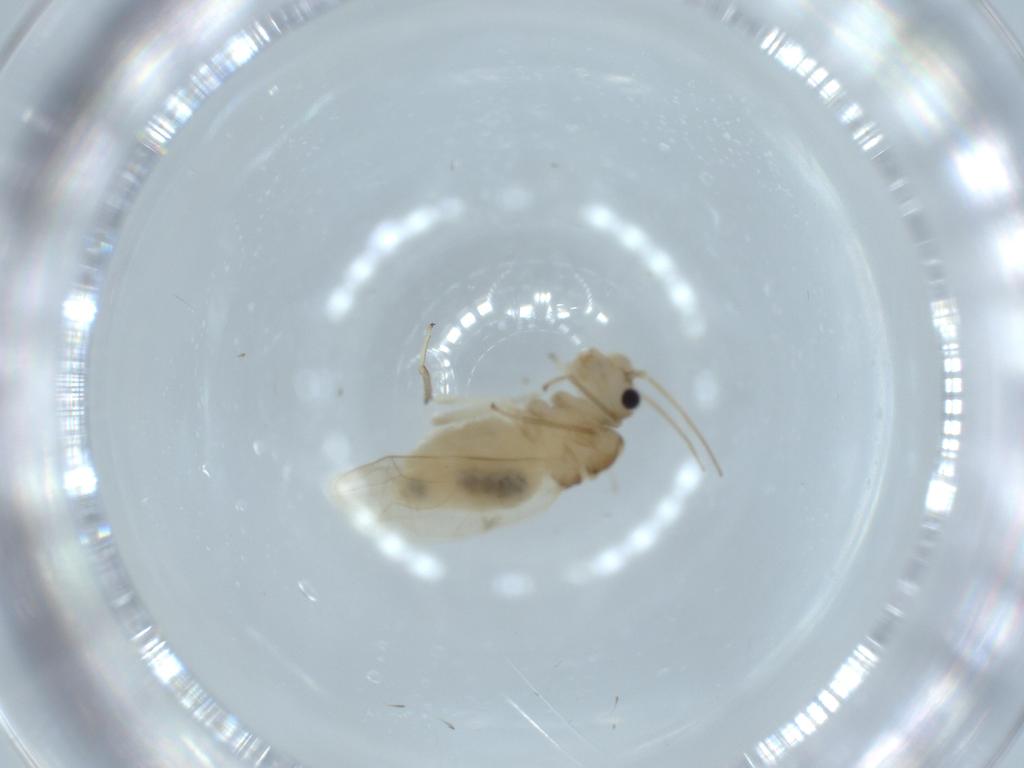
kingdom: Animalia
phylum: Arthropoda
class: Insecta
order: Psocodea
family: Caeciliusidae
